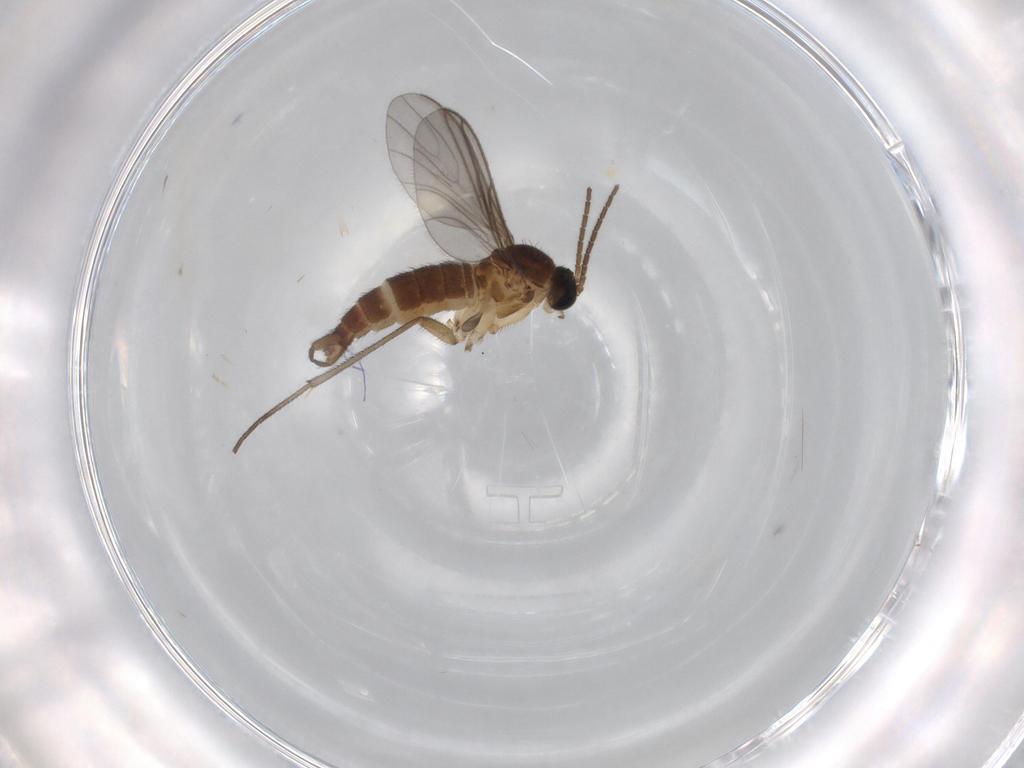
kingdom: Animalia
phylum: Arthropoda
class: Insecta
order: Diptera
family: Sciaridae
